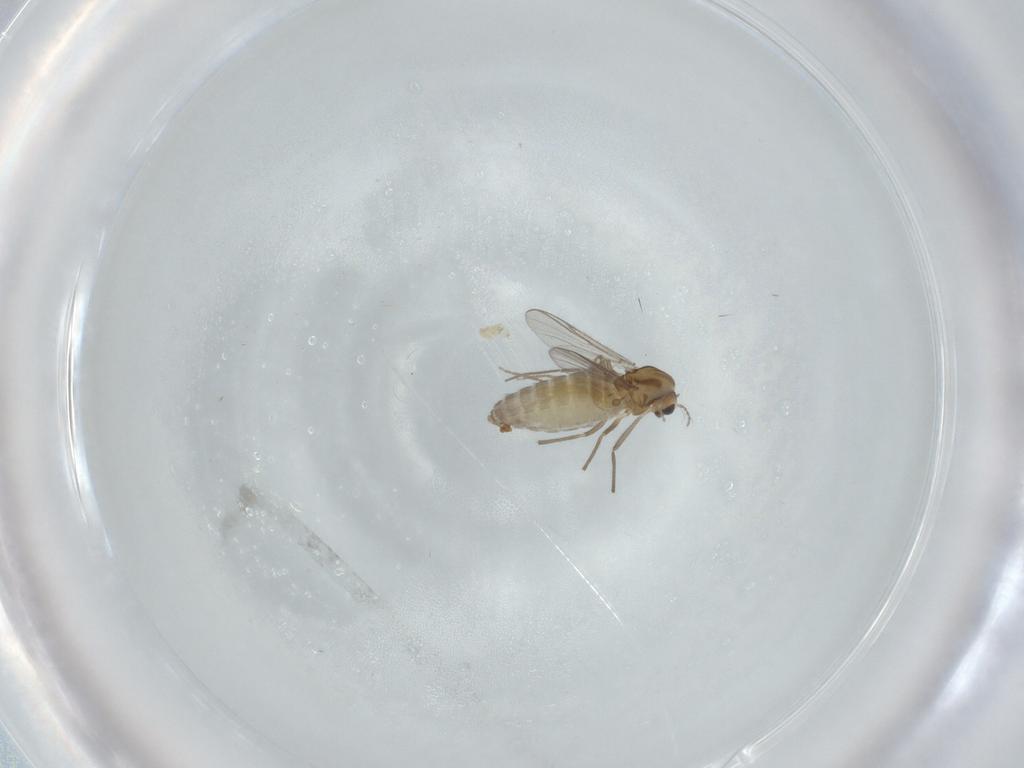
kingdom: Animalia
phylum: Arthropoda
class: Insecta
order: Diptera
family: Chironomidae
